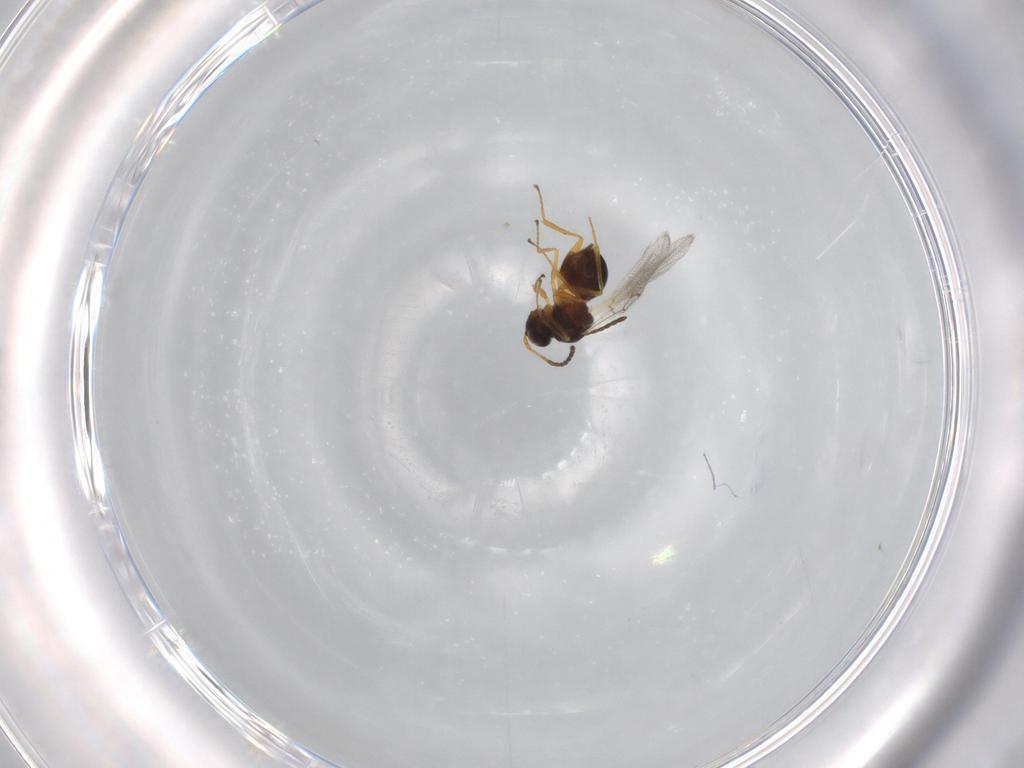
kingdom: Animalia
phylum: Arthropoda
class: Insecta
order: Hymenoptera
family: Figitidae
